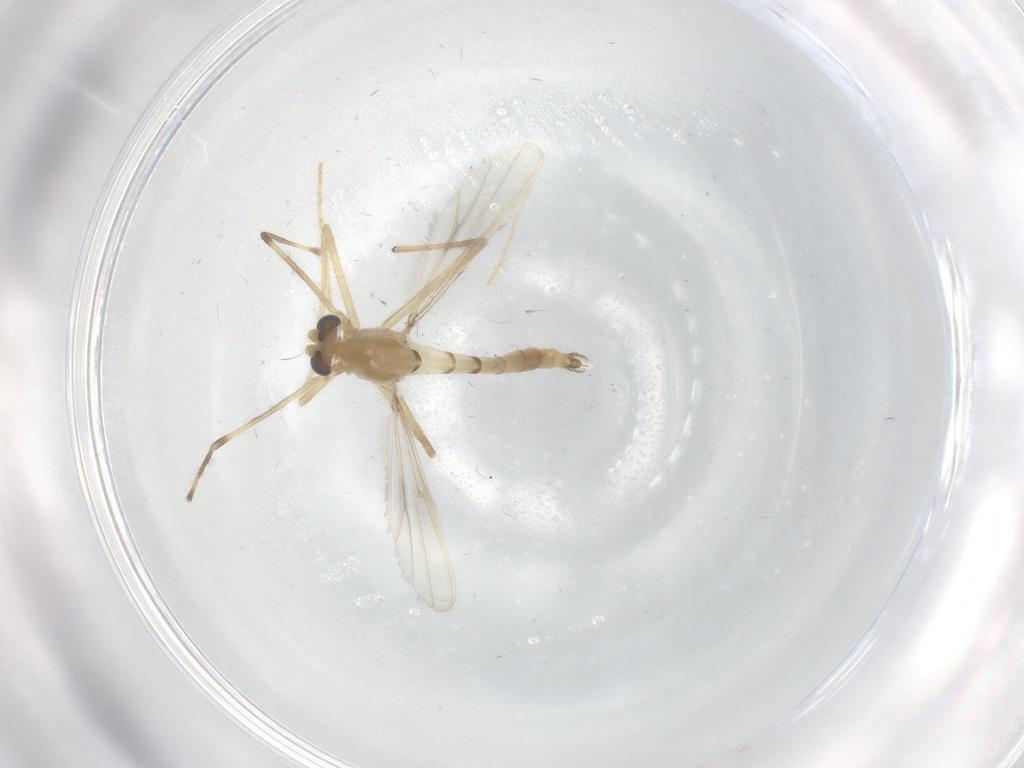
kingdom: Animalia
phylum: Arthropoda
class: Insecta
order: Diptera
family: Chironomidae
